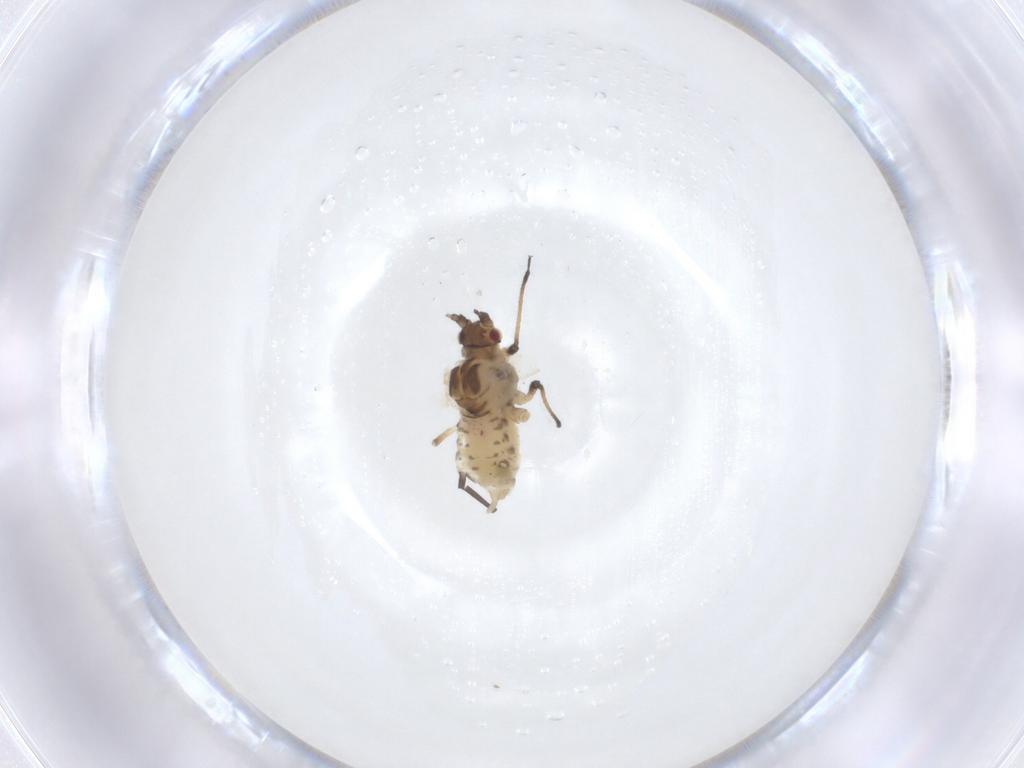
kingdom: Animalia
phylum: Arthropoda
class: Insecta
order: Hemiptera
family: Aphididae
